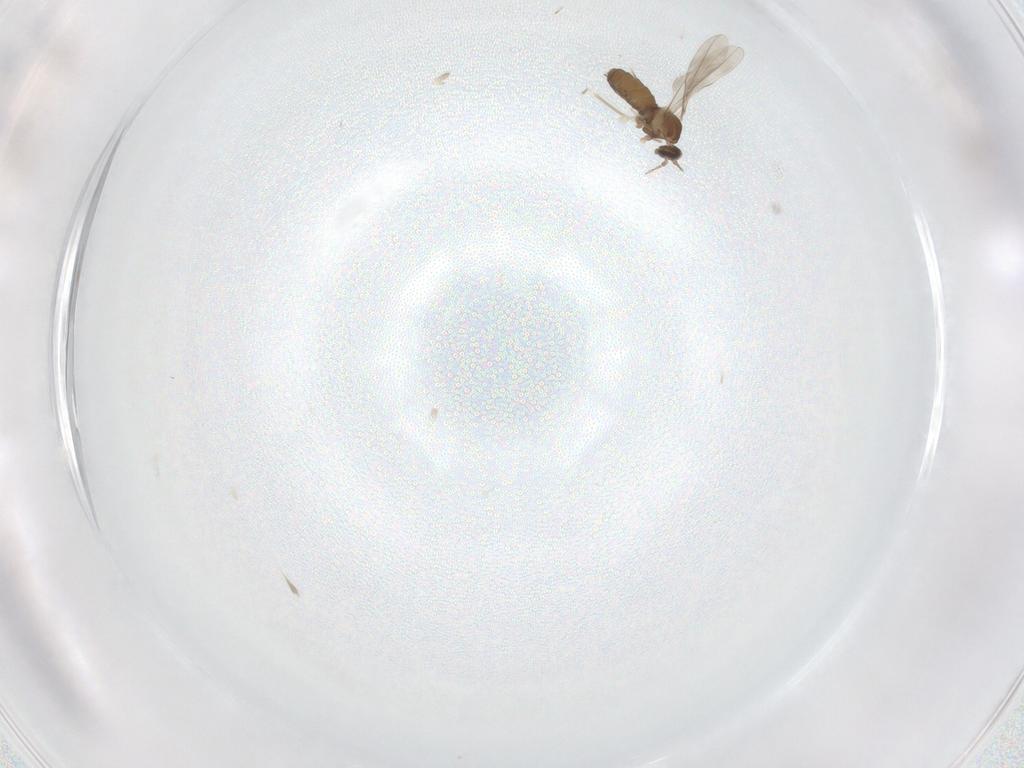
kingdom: Animalia
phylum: Arthropoda
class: Insecta
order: Diptera
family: Cecidomyiidae
